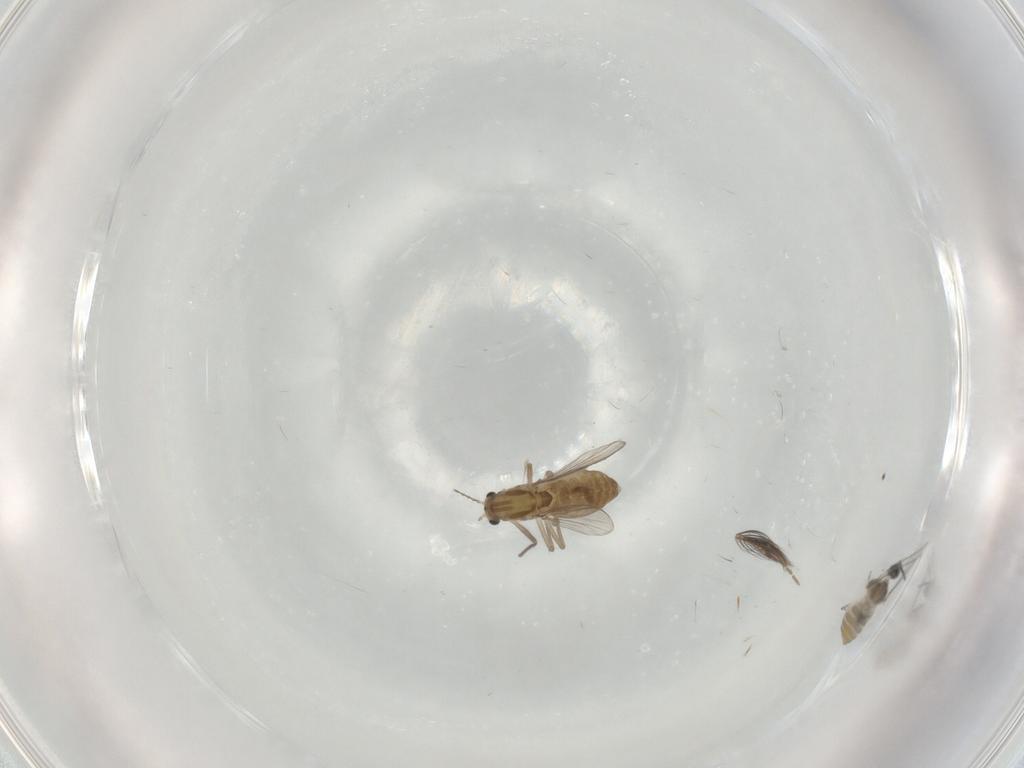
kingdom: Animalia
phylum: Arthropoda
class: Insecta
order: Diptera
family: Cecidomyiidae
